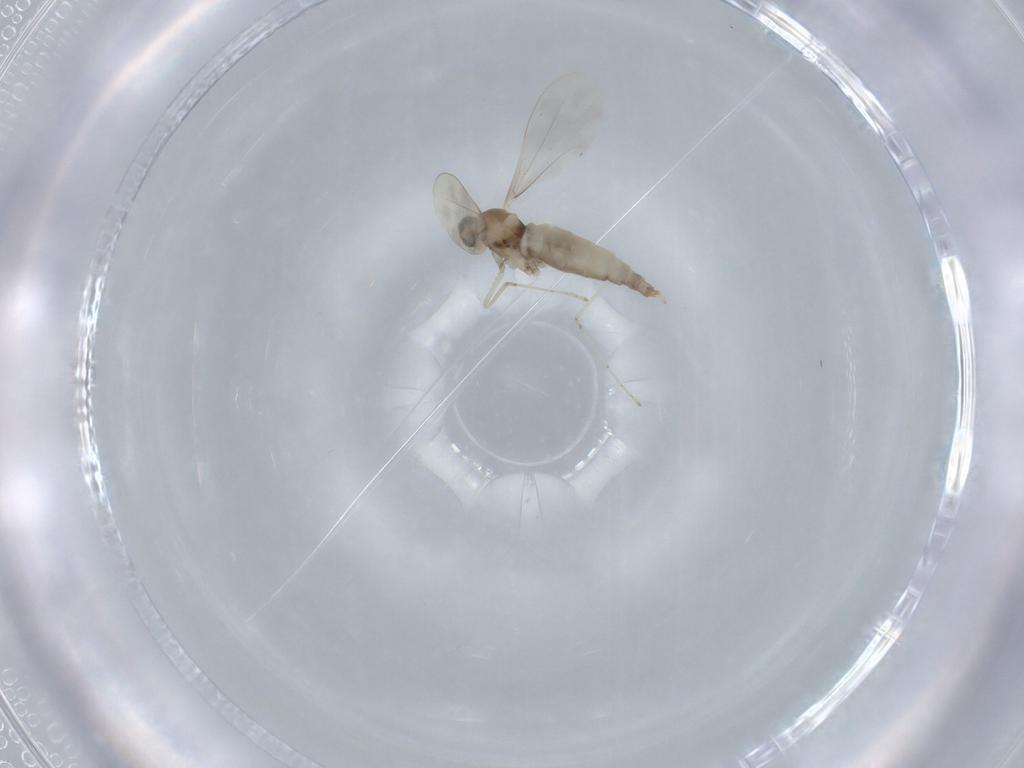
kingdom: Animalia
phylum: Arthropoda
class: Insecta
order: Diptera
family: Cecidomyiidae
